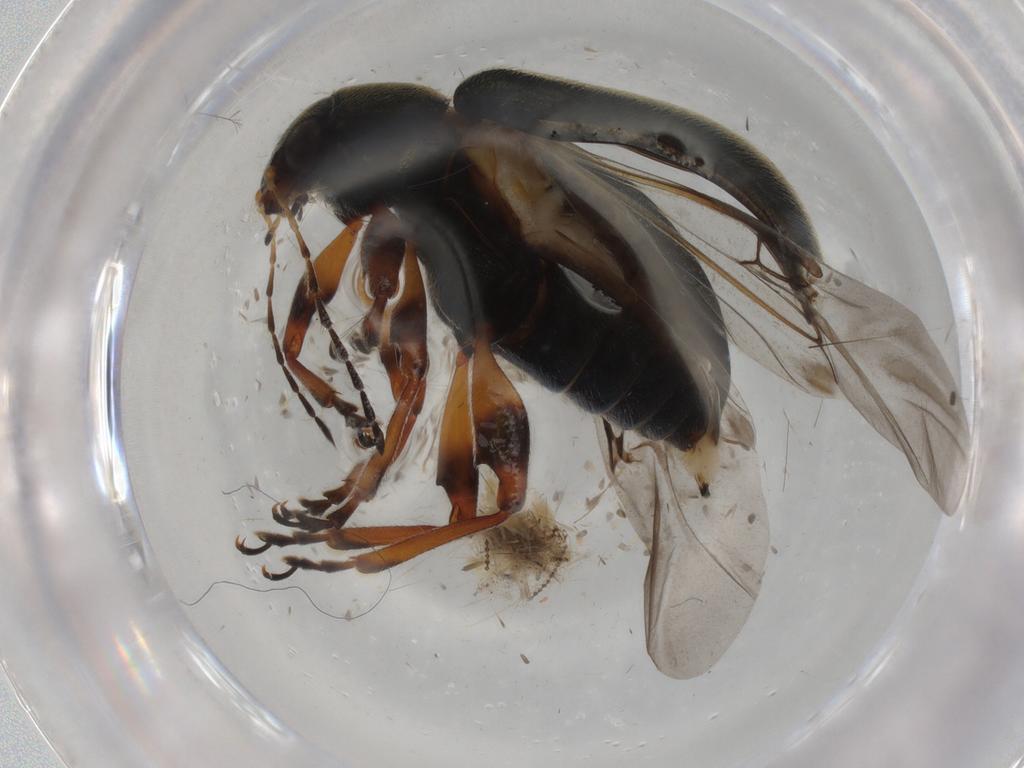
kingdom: Animalia
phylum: Arthropoda
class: Insecta
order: Coleoptera
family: Chrysomelidae
